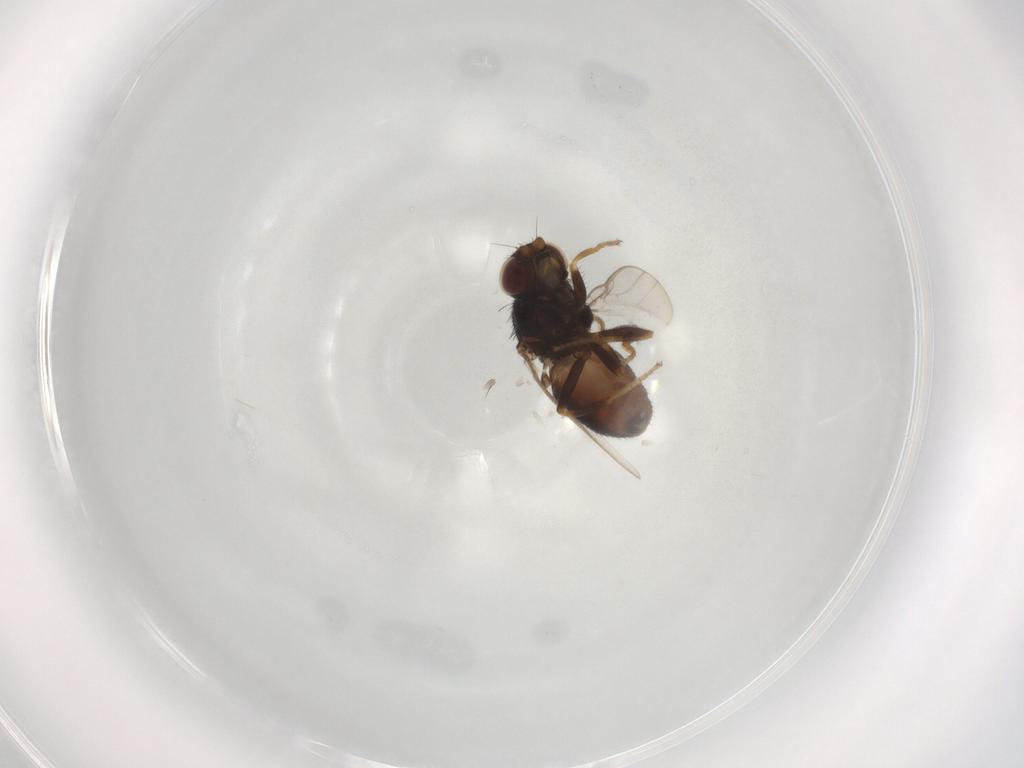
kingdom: Animalia
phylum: Arthropoda
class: Insecta
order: Diptera
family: Chloropidae
